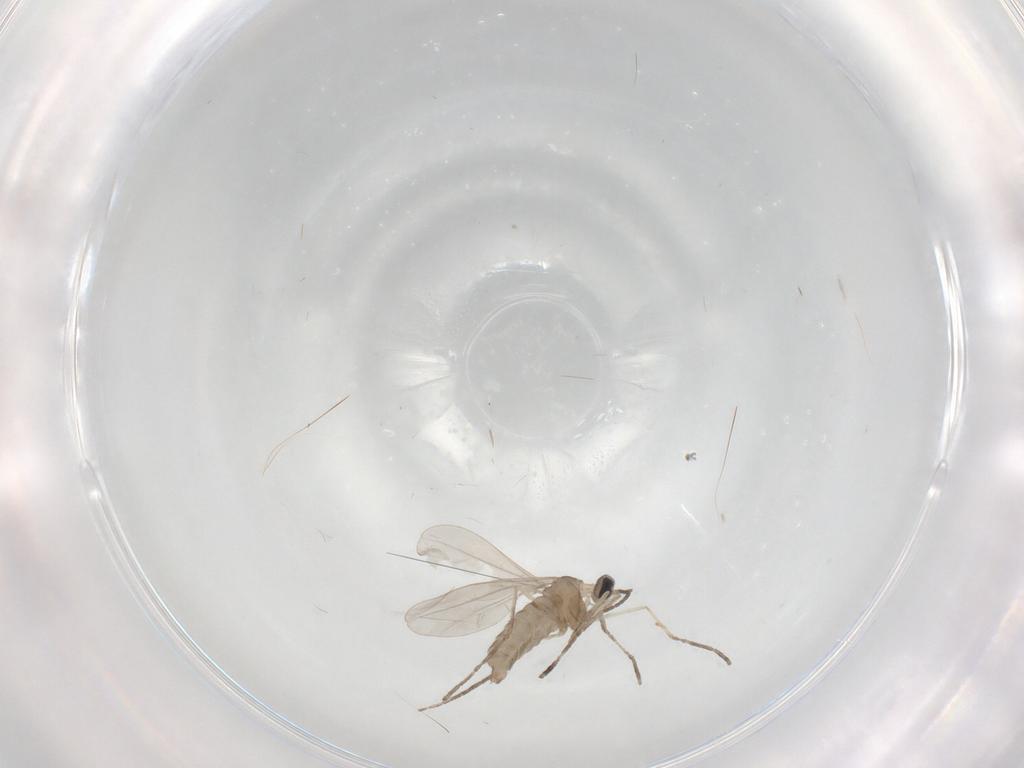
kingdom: Animalia
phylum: Arthropoda
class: Insecta
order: Diptera
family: Cecidomyiidae
